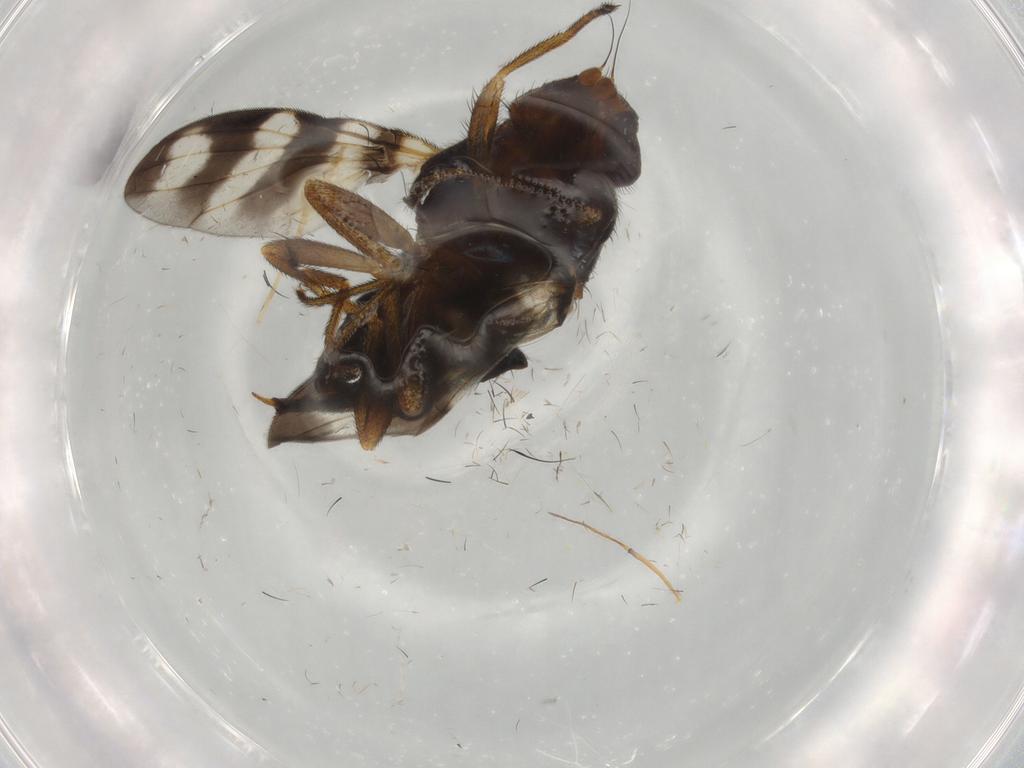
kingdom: Animalia
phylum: Arthropoda
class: Insecta
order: Diptera
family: Ulidiidae
